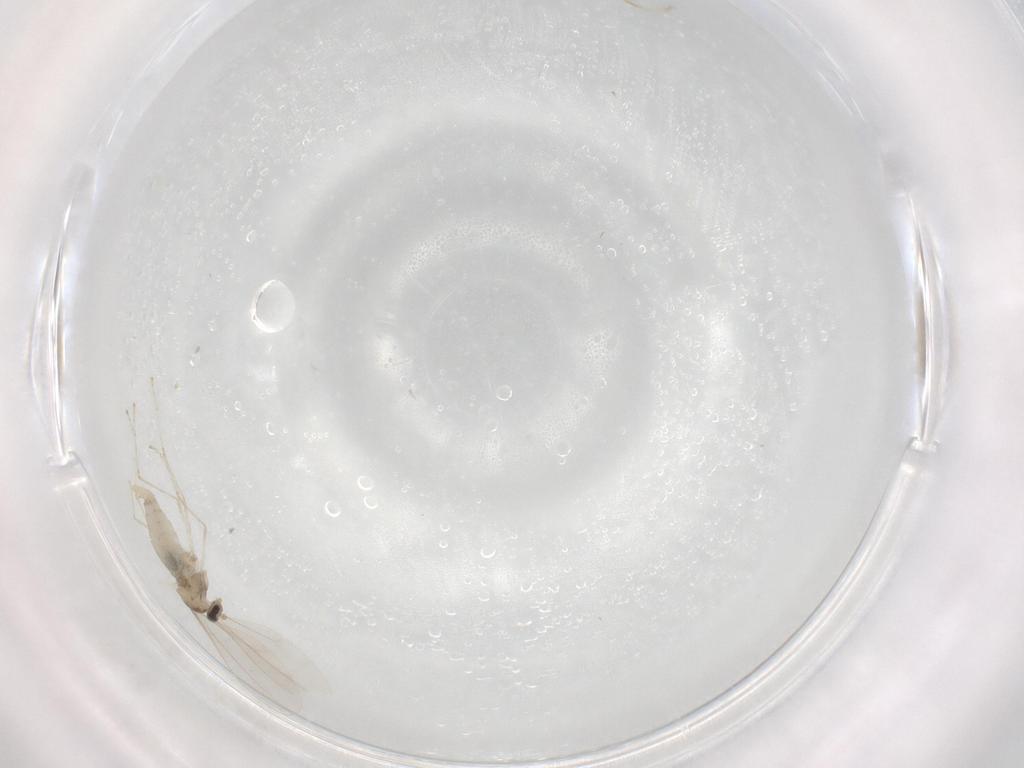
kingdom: Animalia
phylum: Arthropoda
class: Insecta
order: Diptera
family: Cecidomyiidae
